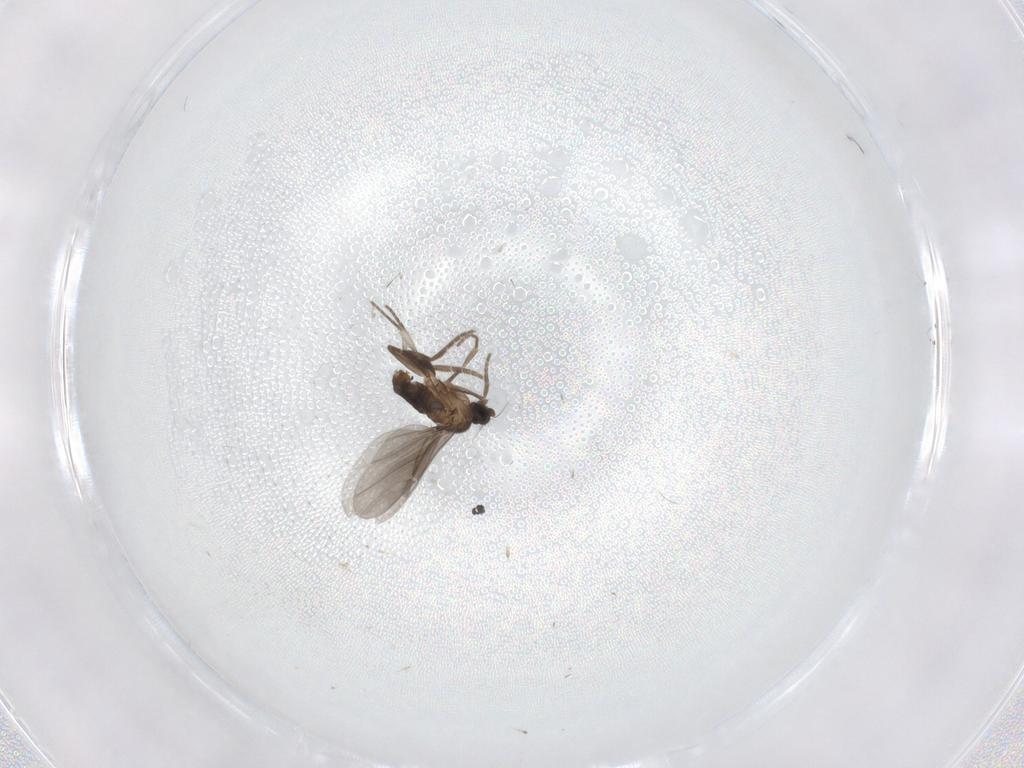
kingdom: Animalia
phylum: Arthropoda
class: Insecta
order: Diptera
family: Phoridae
